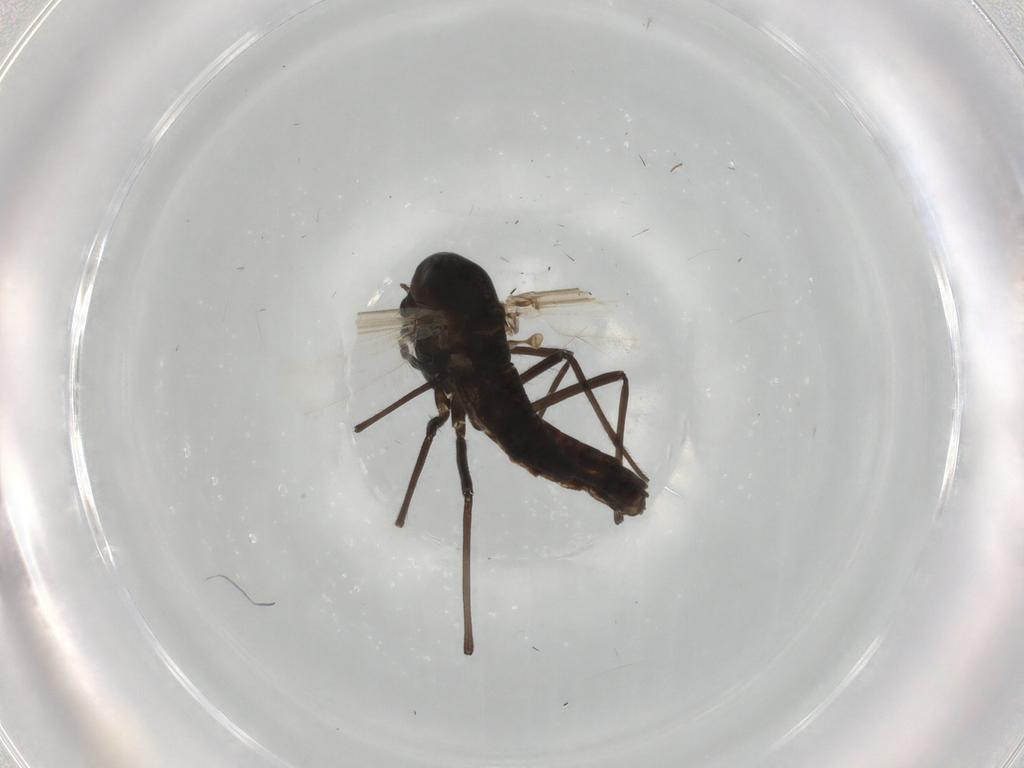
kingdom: Animalia
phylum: Arthropoda
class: Insecta
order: Diptera
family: Chironomidae
